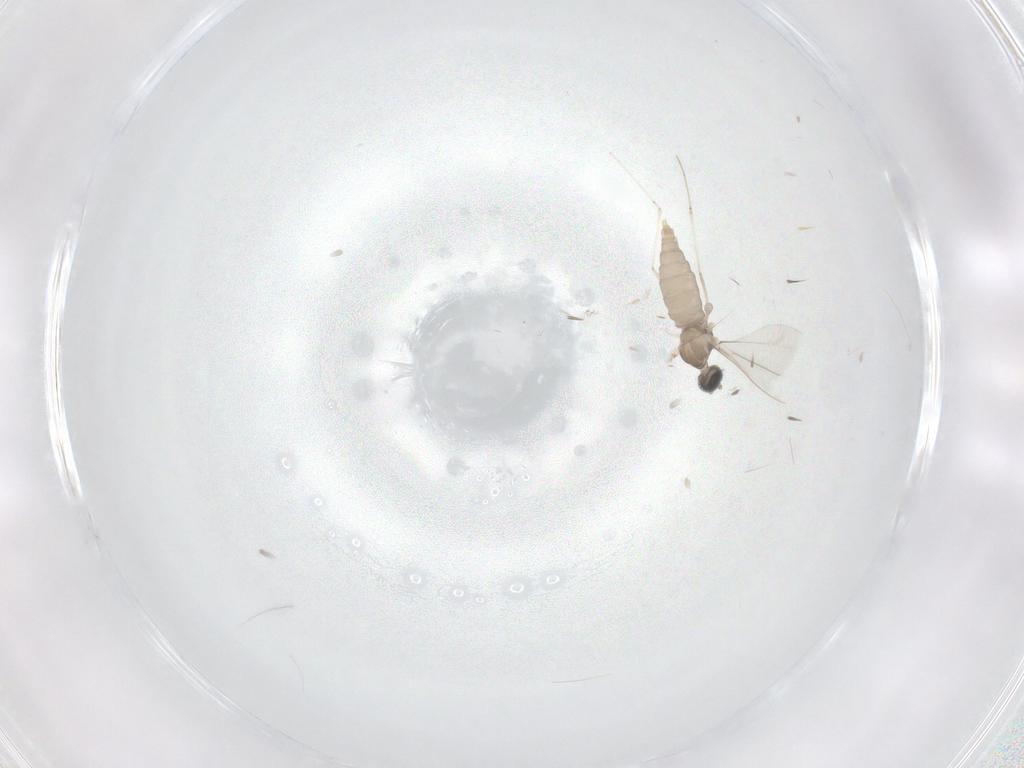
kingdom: Animalia
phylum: Arthropoda
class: Insecta
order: Diptera
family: Cecidomyiidae
